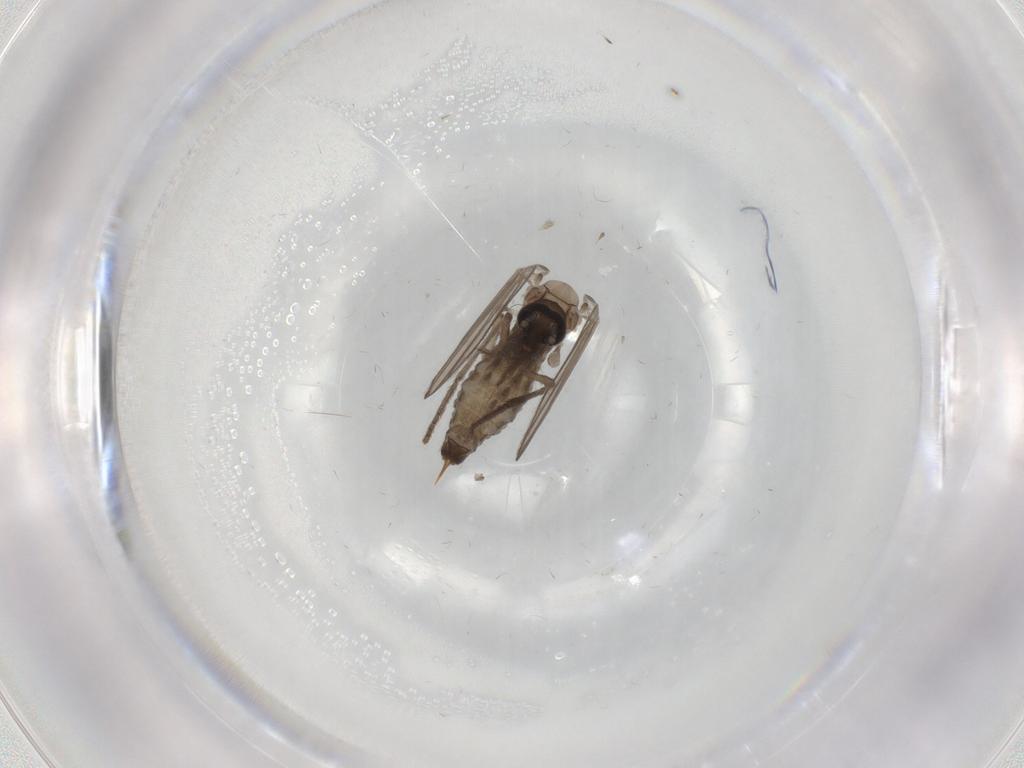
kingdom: Animalia
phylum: Arthropoda
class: Insecta
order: Diptera
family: Psychodidae
